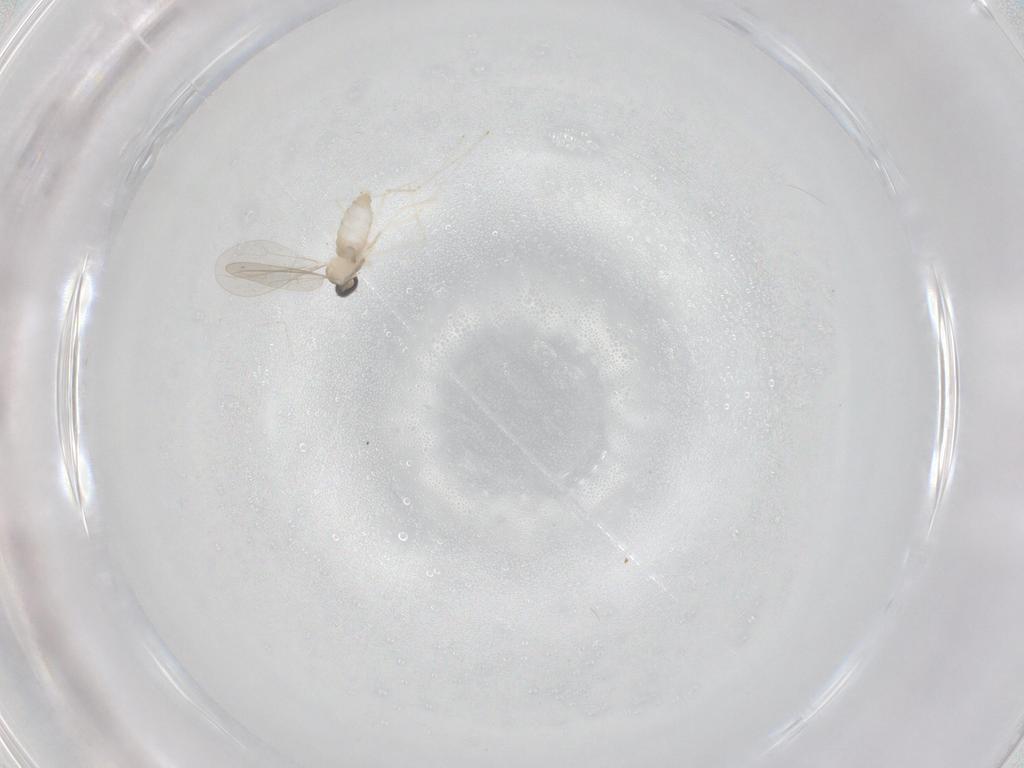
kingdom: Animalia
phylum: Arthropoda
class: Insecta
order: Diptera
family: Cecidomyiidae
